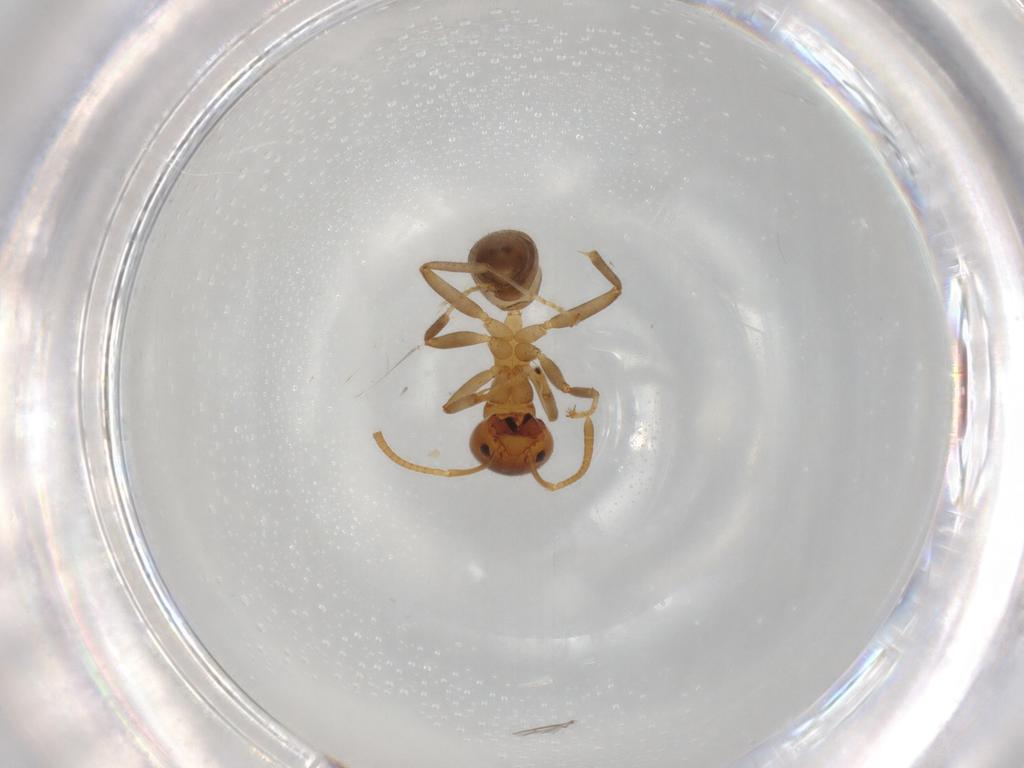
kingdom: Animalia
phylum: Arthropoda
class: Insecta
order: Hymenoptera
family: Formicidae
